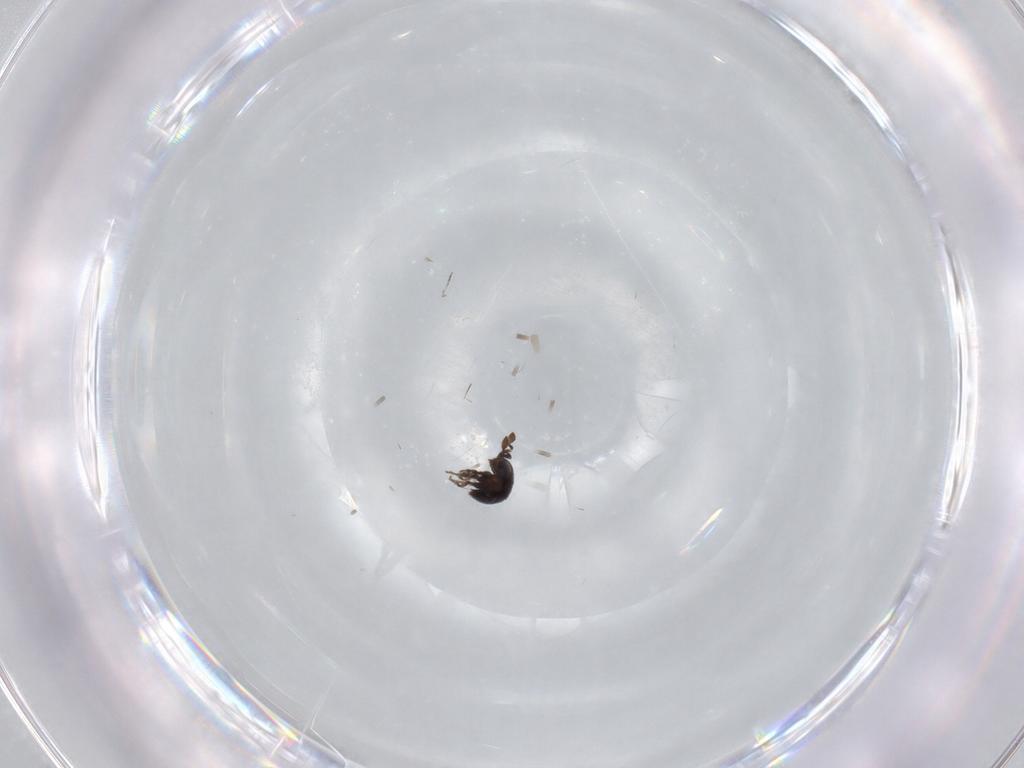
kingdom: Animalia
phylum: Arthropoda
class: Insecta
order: Hymenoptera
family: Scelionidae
